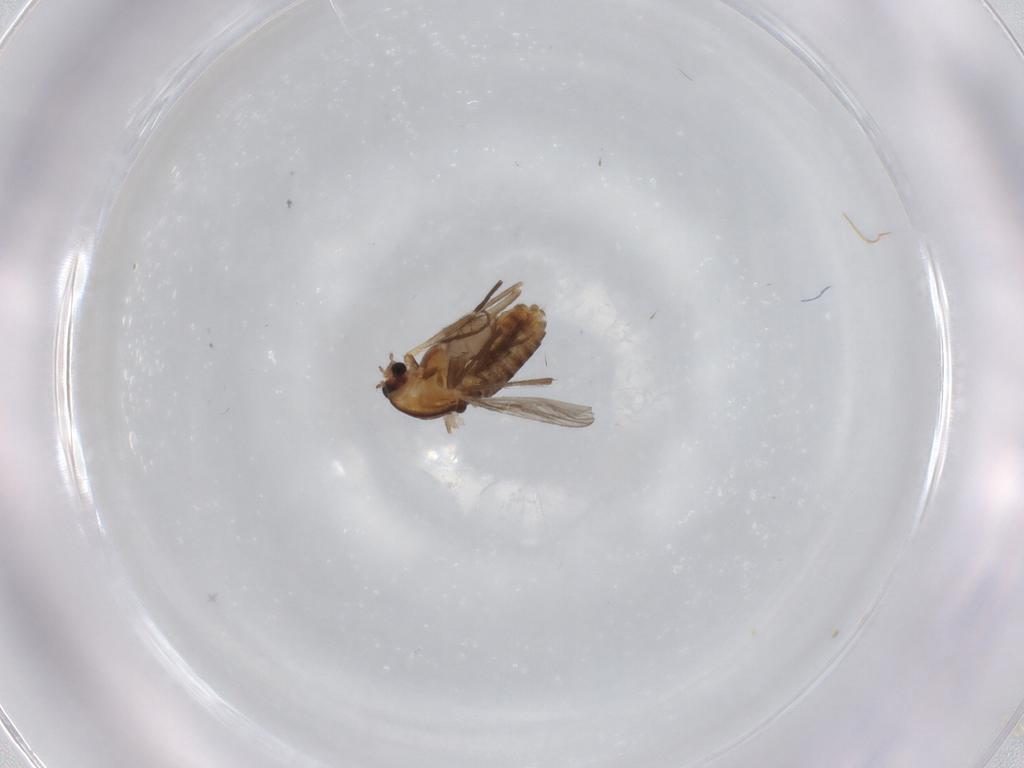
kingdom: Animalia
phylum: Arthropoda
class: Insecta
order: Diptera
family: Chironomidae
